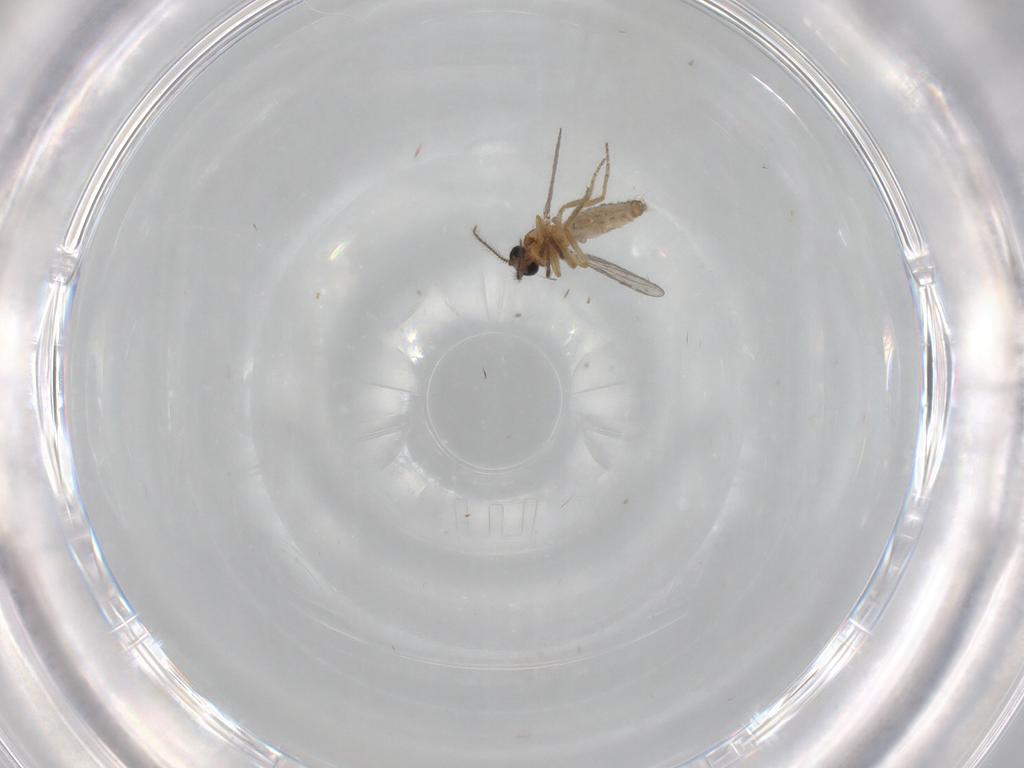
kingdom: Animalia
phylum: Arthropoda
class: Insecta
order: Diptera
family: Cecidomyiidae
